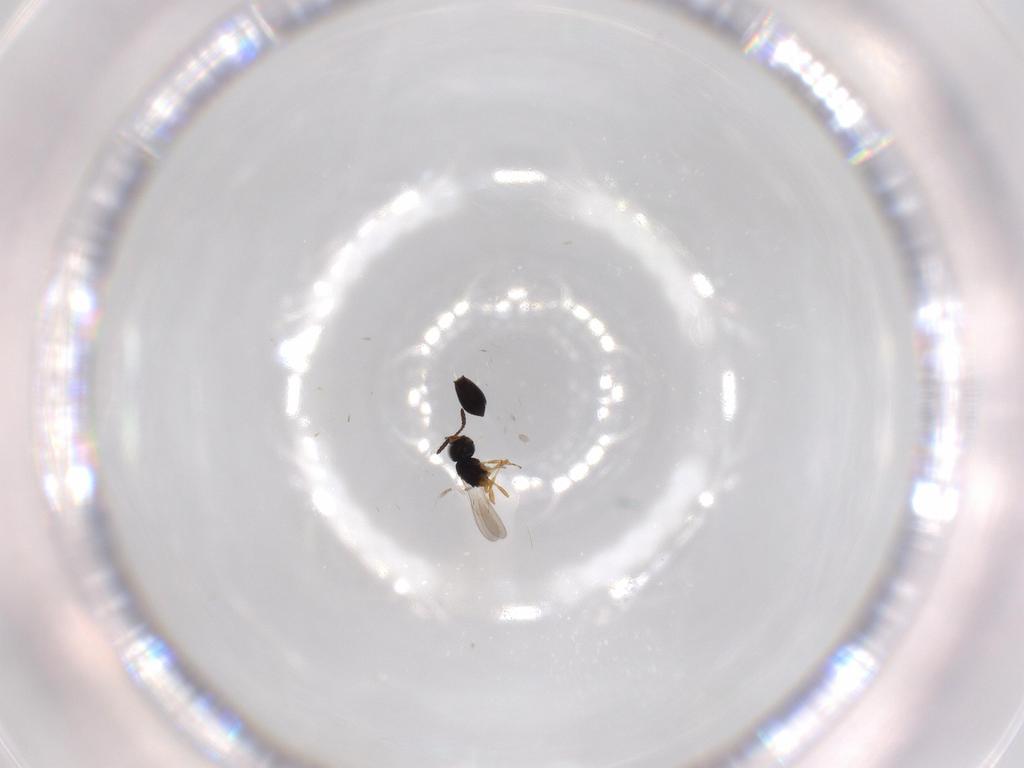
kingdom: Animalia
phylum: Arthropoda
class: Insecta
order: Hymenoptera
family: Scelionidae
